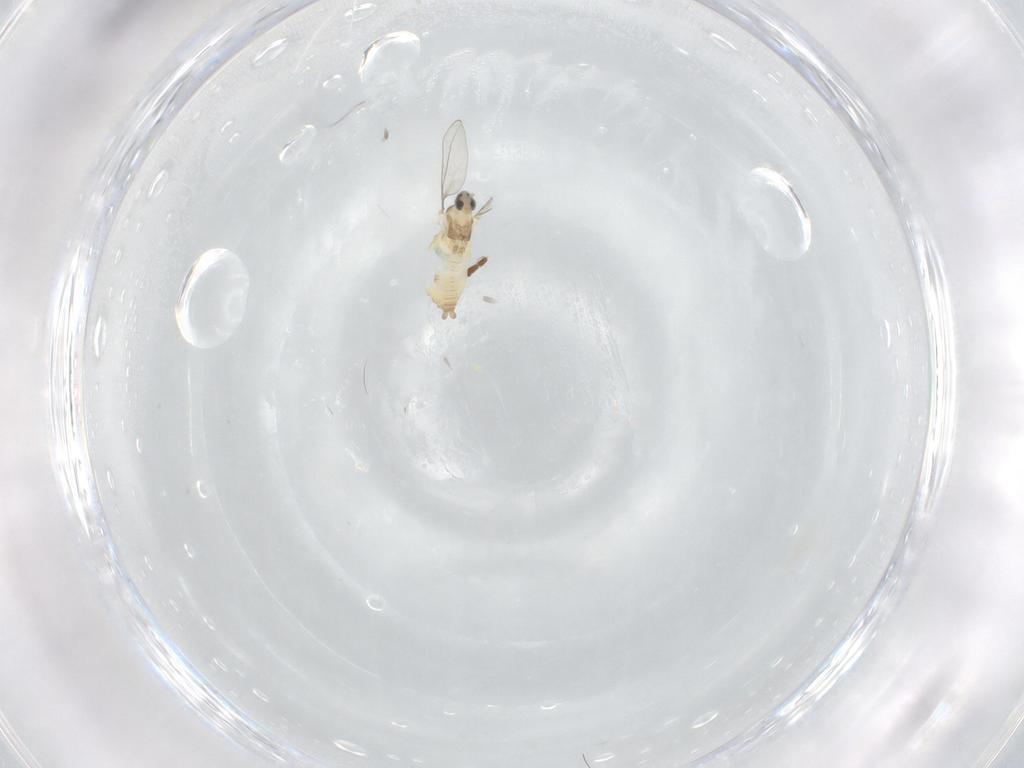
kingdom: Animalia
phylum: Arthropoda
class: Insecta
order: Diptera
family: Cecidomyiidae
